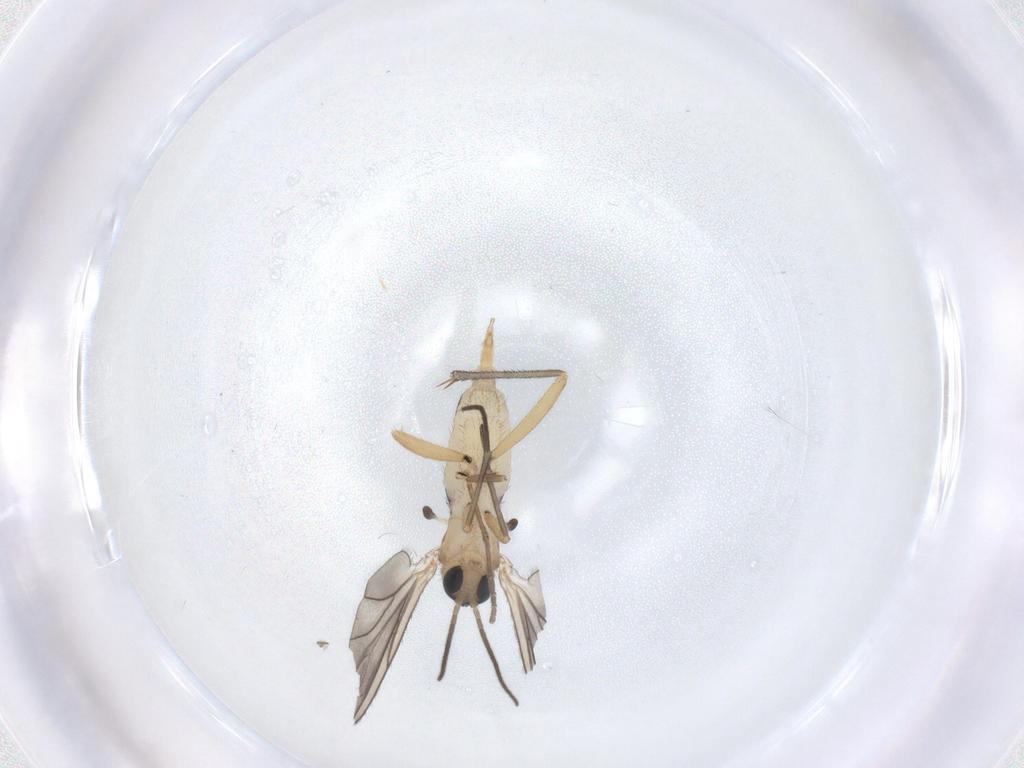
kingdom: Animalia
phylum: Arthropoda
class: Insecta
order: Diptera
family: Sciaridae
